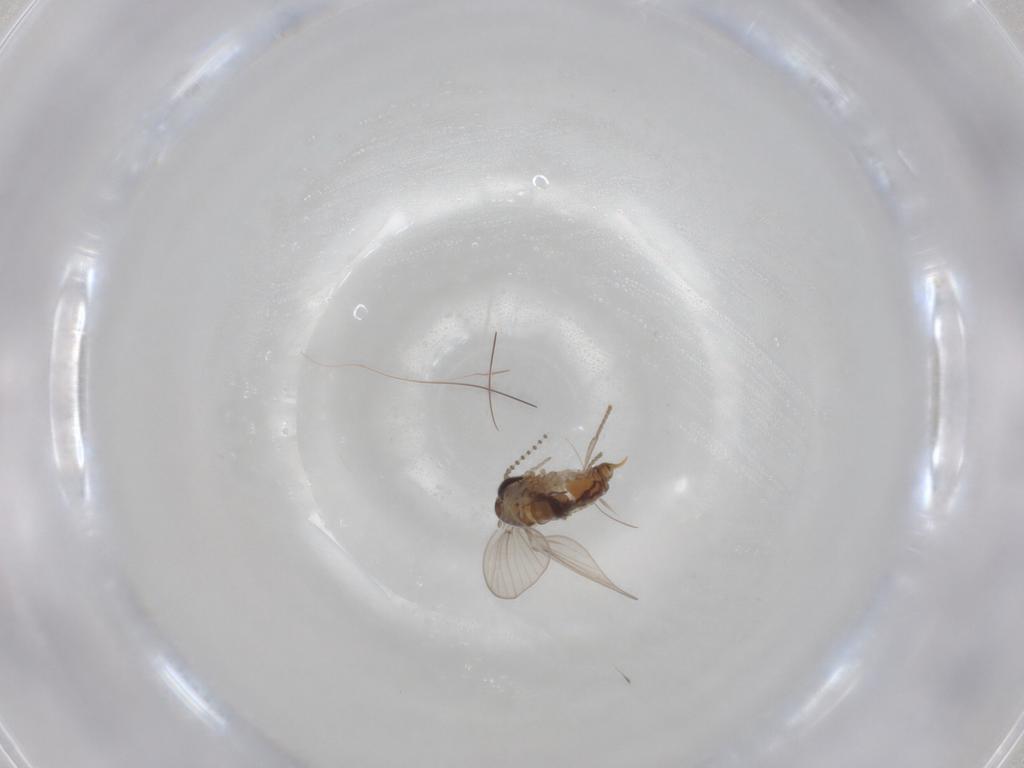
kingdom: Animalia
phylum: Arthropoda
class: Insecta
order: Diptera
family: Psychodidae
